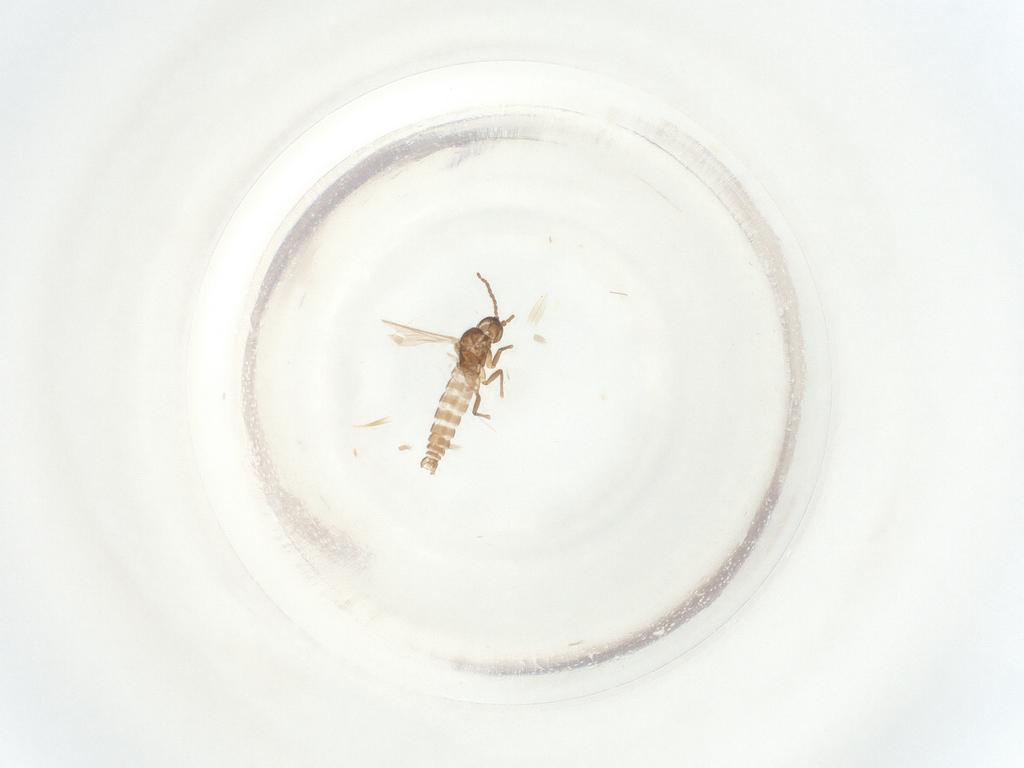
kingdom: Animalia
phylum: Arthropoda
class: Insecta
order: Diptera
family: Sciaridae
